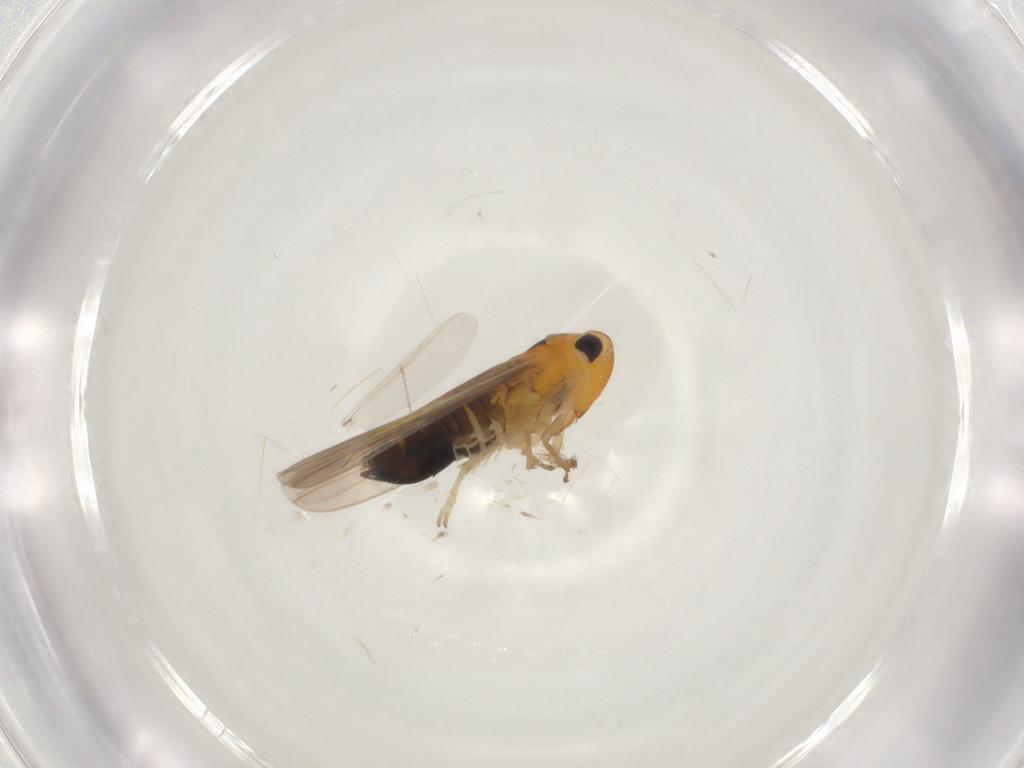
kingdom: Animalia
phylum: Arthropoda
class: Insecta
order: Hemiptera
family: Cicadellidae
